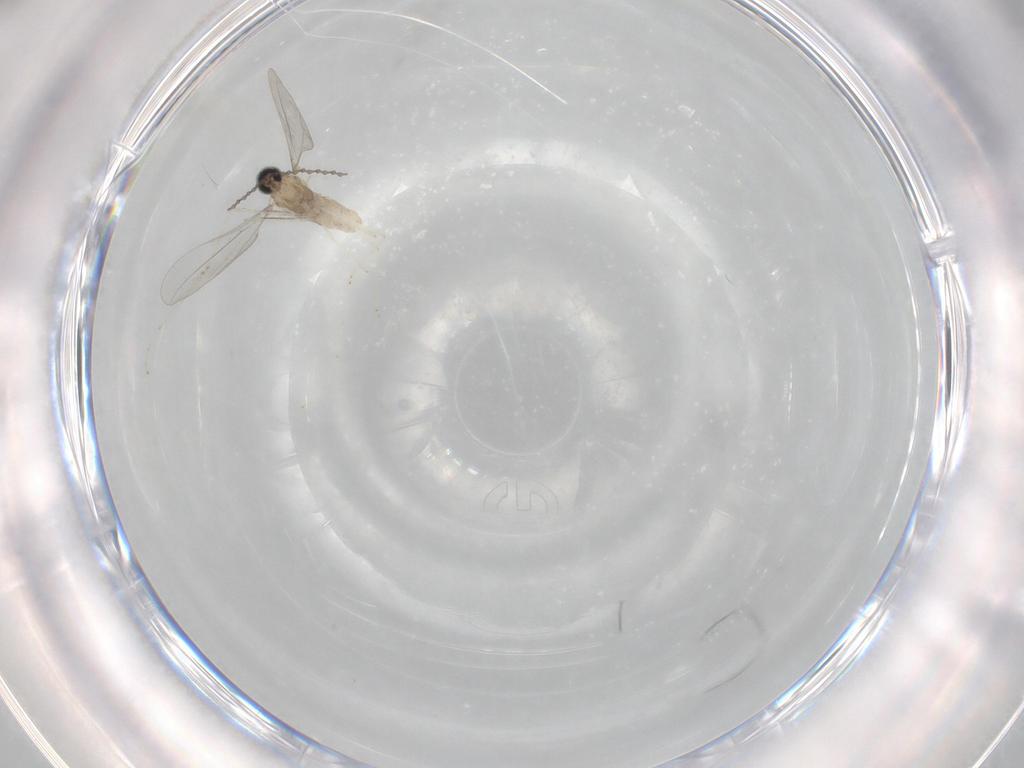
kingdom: Animalia
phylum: Arthropoda
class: Insecta
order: Diptera
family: Cecidomyiidae
